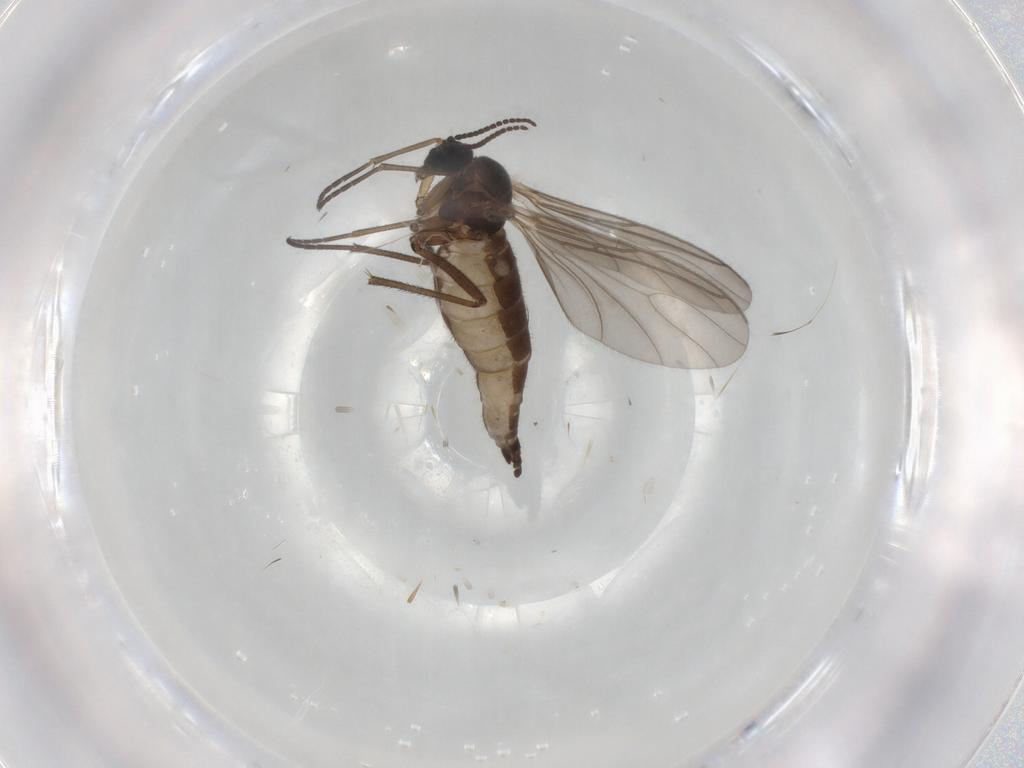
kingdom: Animalia
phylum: Arthropoda
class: Insecta
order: Diptera
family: Sciaridae
